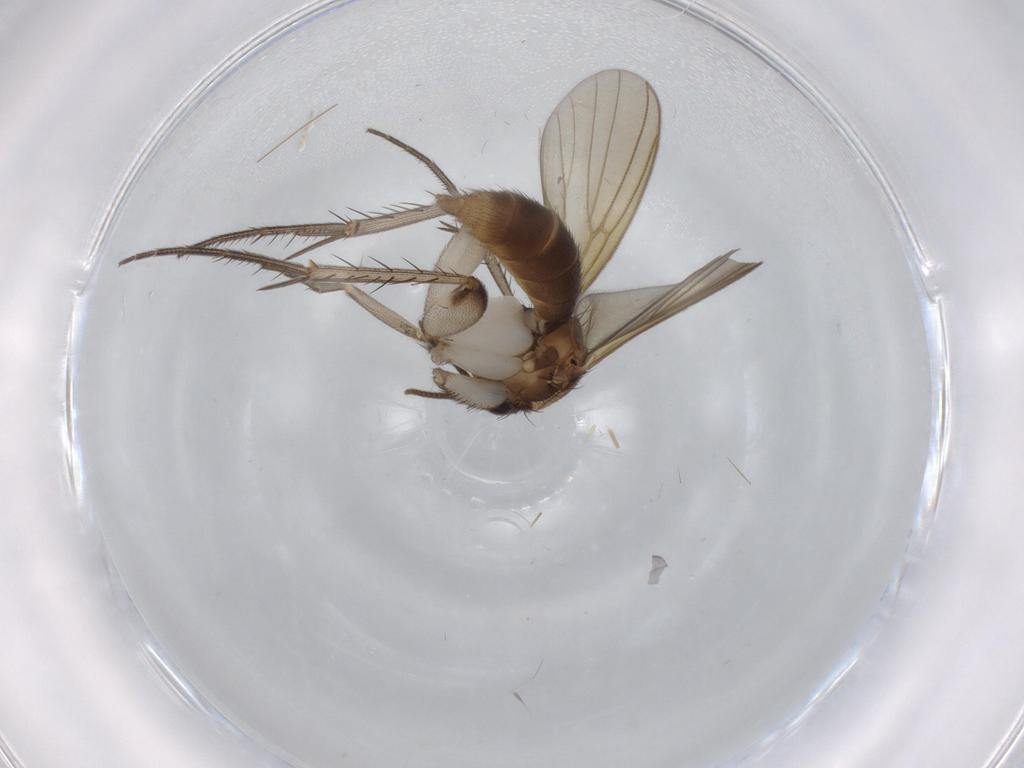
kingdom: Animalia
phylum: Arthropoda
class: Insecta
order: Diptera
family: Mycetophilidae
